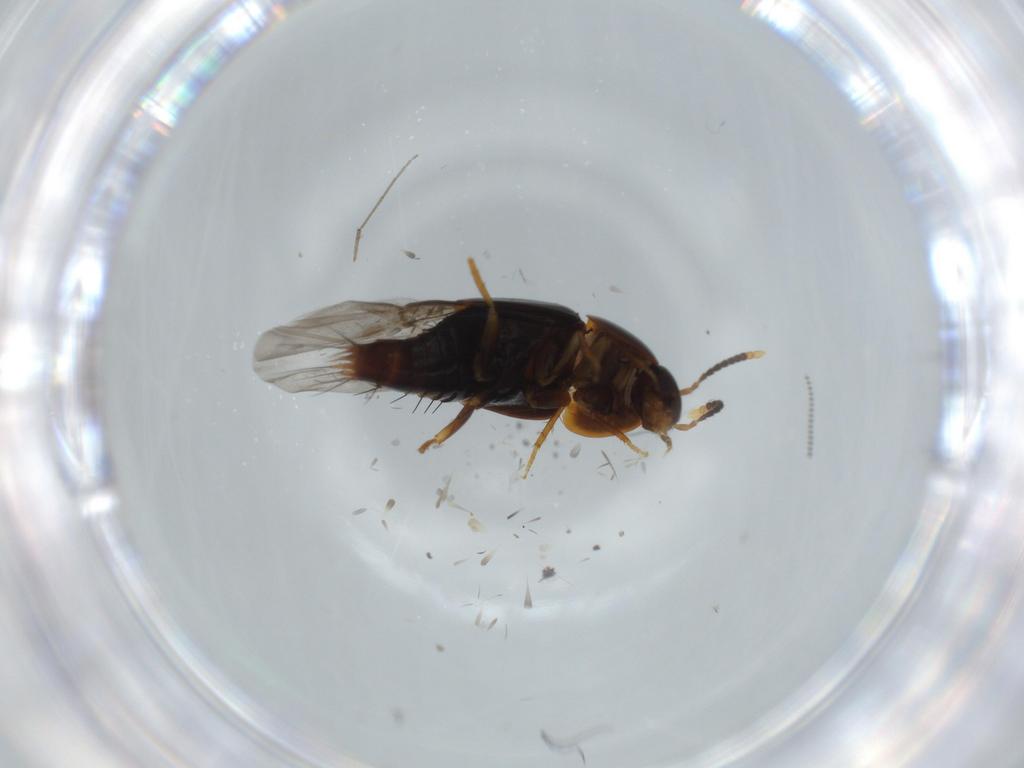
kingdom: Animalia
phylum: Arthropoda
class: Insecta
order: Coleoptera
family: Staphylinidae
